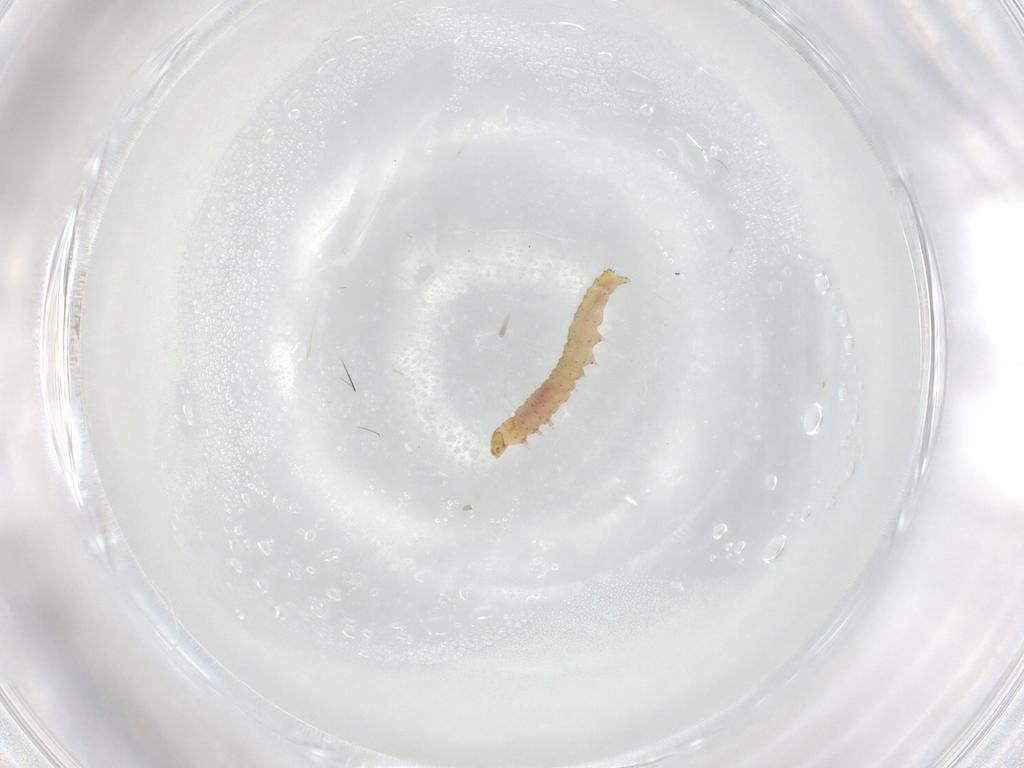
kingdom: Animalia
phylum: Arthropoda
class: Insecta
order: Lepidoptera
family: Gelechiidae
